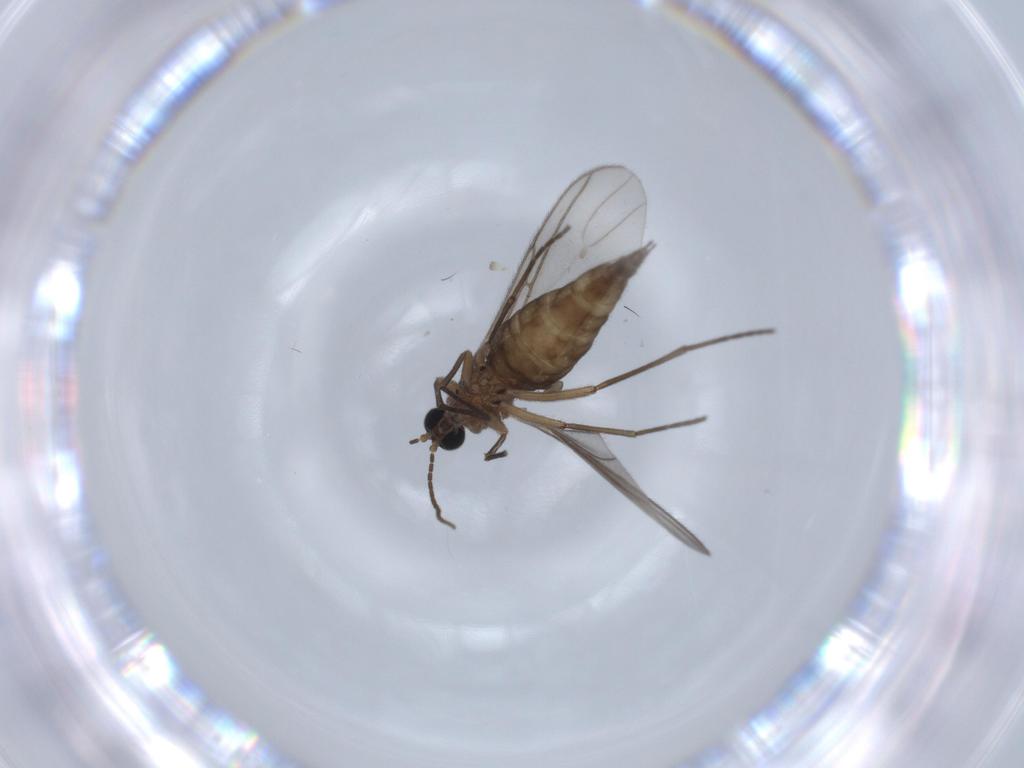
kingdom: Animalia
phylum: Arthropoda
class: Insecta
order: Diptera
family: Sciaridae
